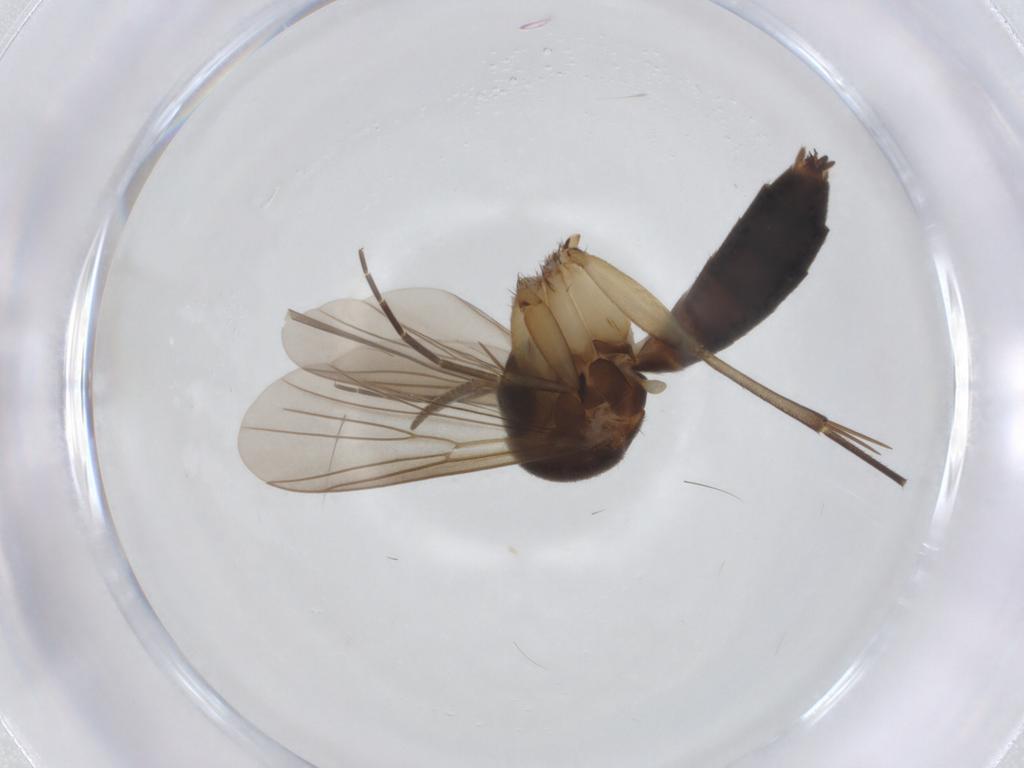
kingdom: Animalia
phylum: Arthropoda
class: Insecta
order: Diptera
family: Mycetophilidae
